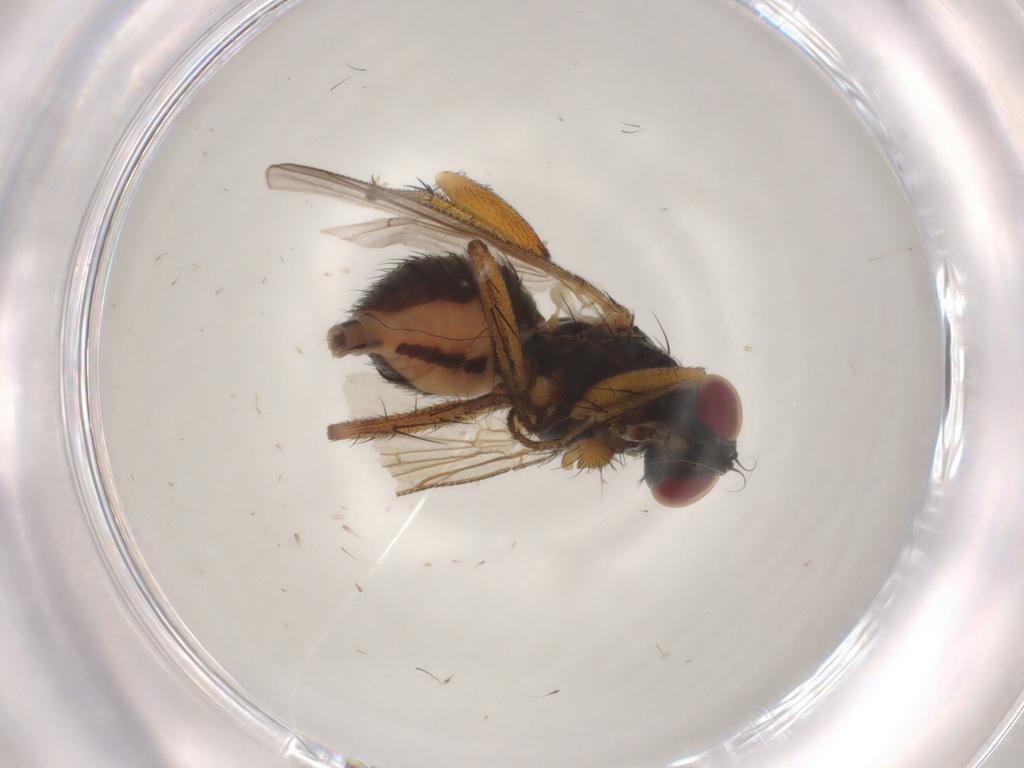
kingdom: Animalia
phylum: Arthropoda
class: Insecta
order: Diptera
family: Muscidae
